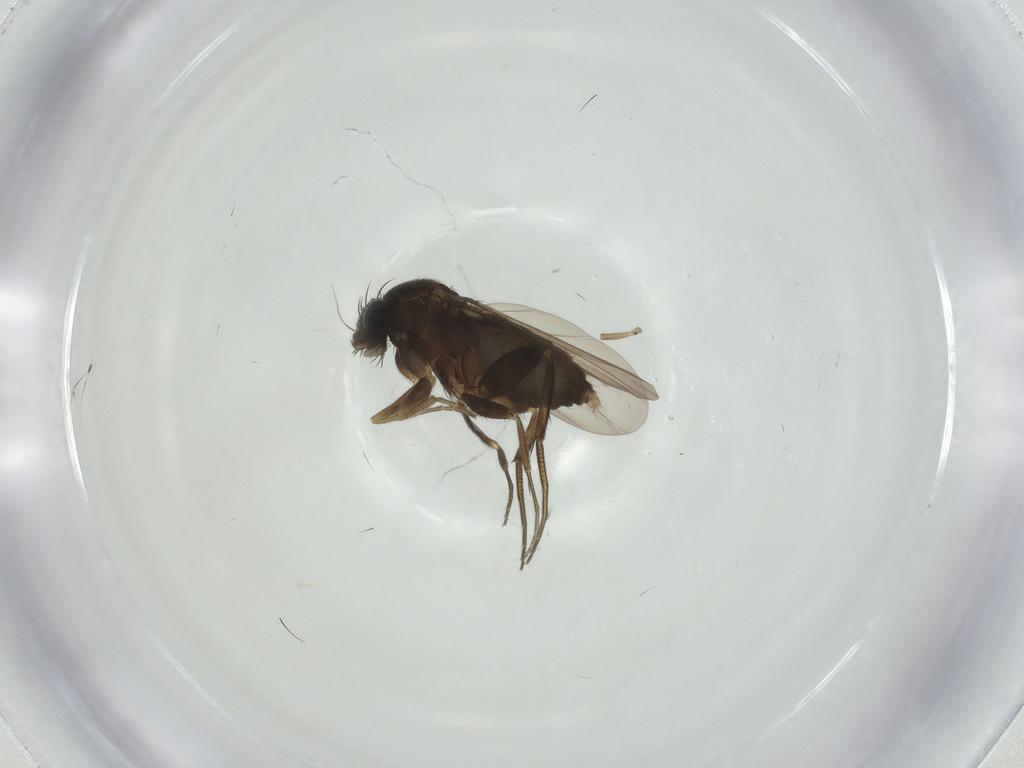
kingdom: Animalia
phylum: Arthropoda
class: Insecta
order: Diptera
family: Phoridae
